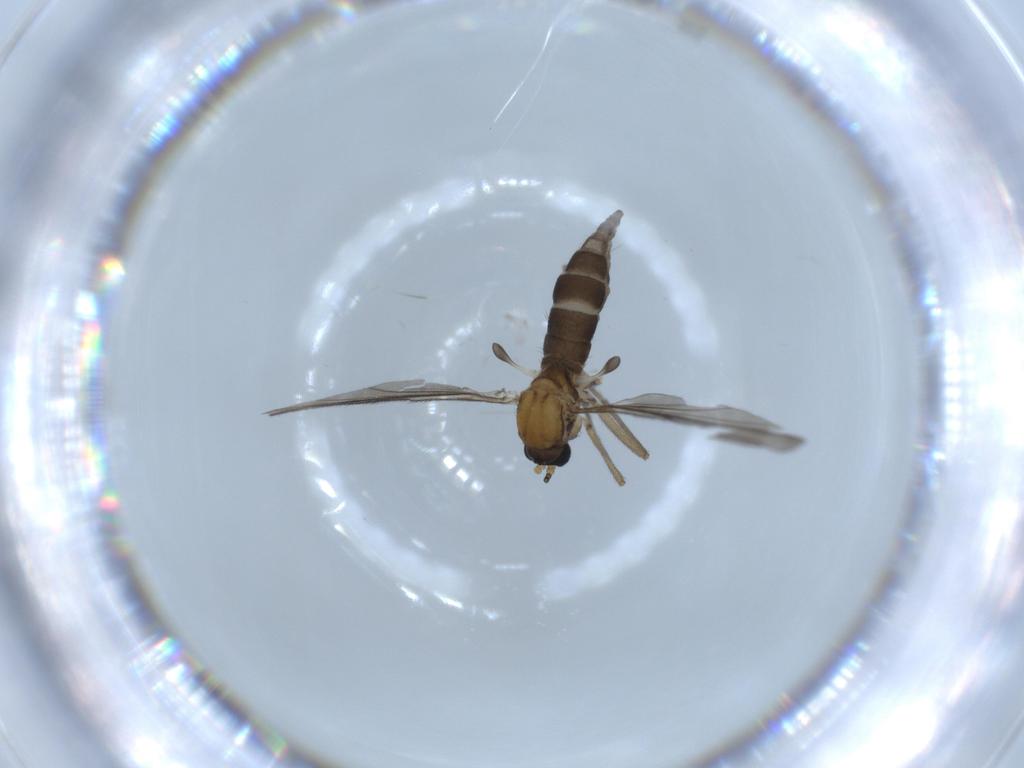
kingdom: Animalia
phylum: Arthropoda
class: Insecta
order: Diptera
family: Sciaridae
